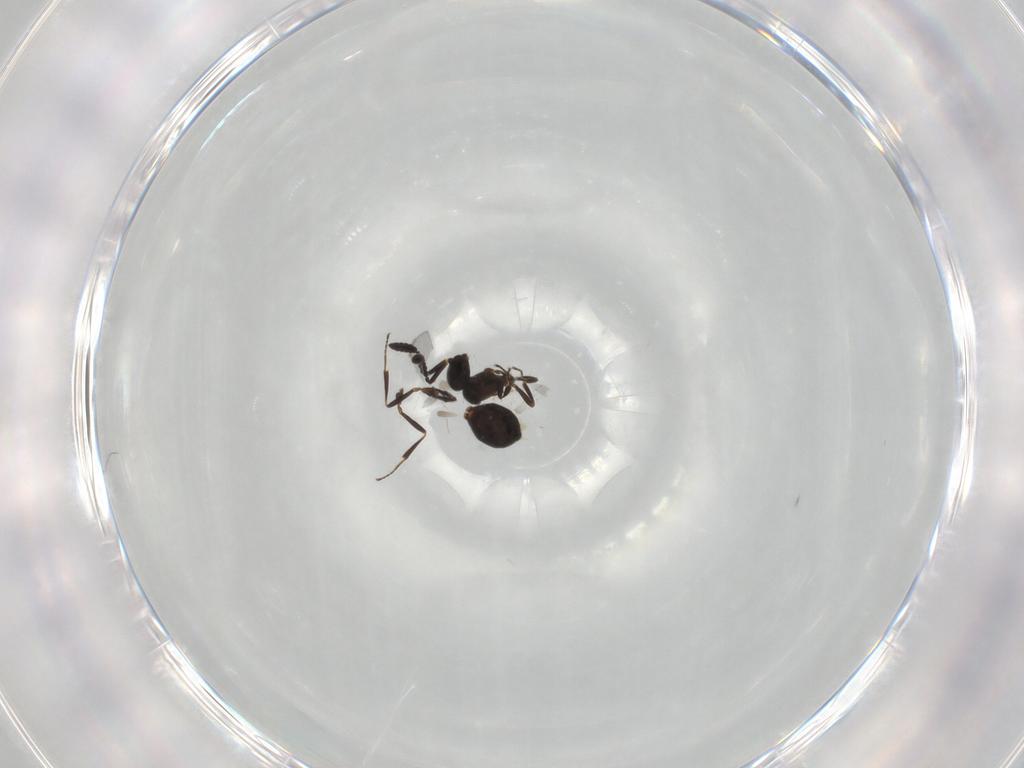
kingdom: Animalia
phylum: Arthropoda
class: Insecta
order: Hymenoptera
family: Scelionidae
